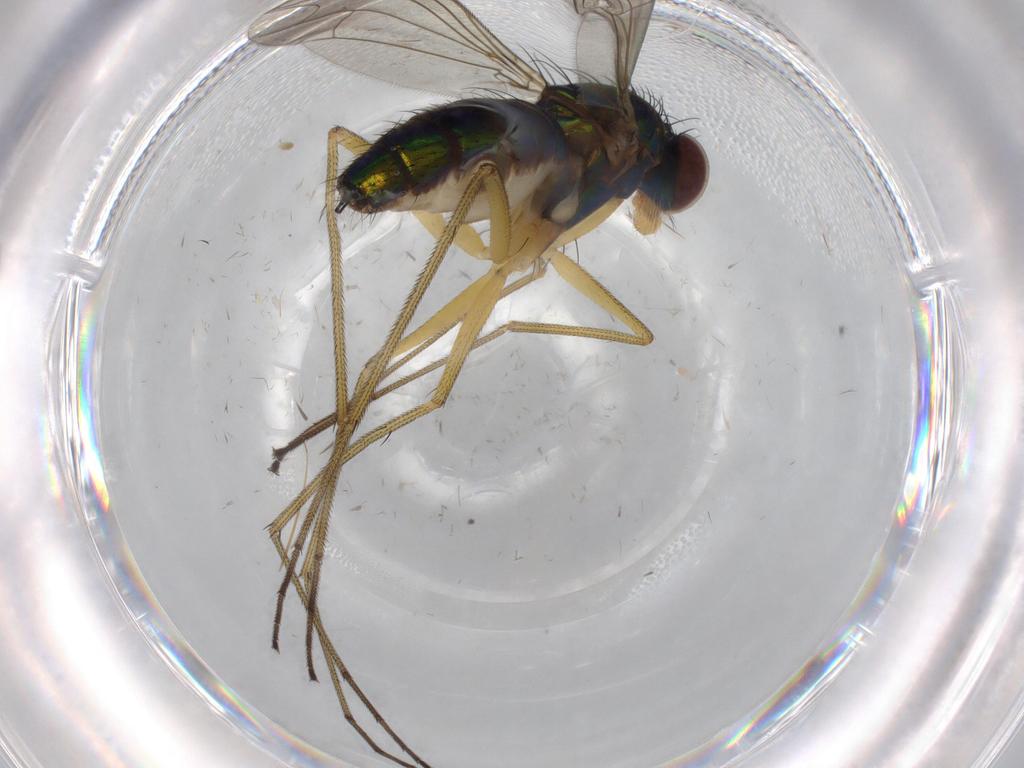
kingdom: Animalia
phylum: Arthropoda
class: Insecta
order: Diptera
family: Dolichopodidae
